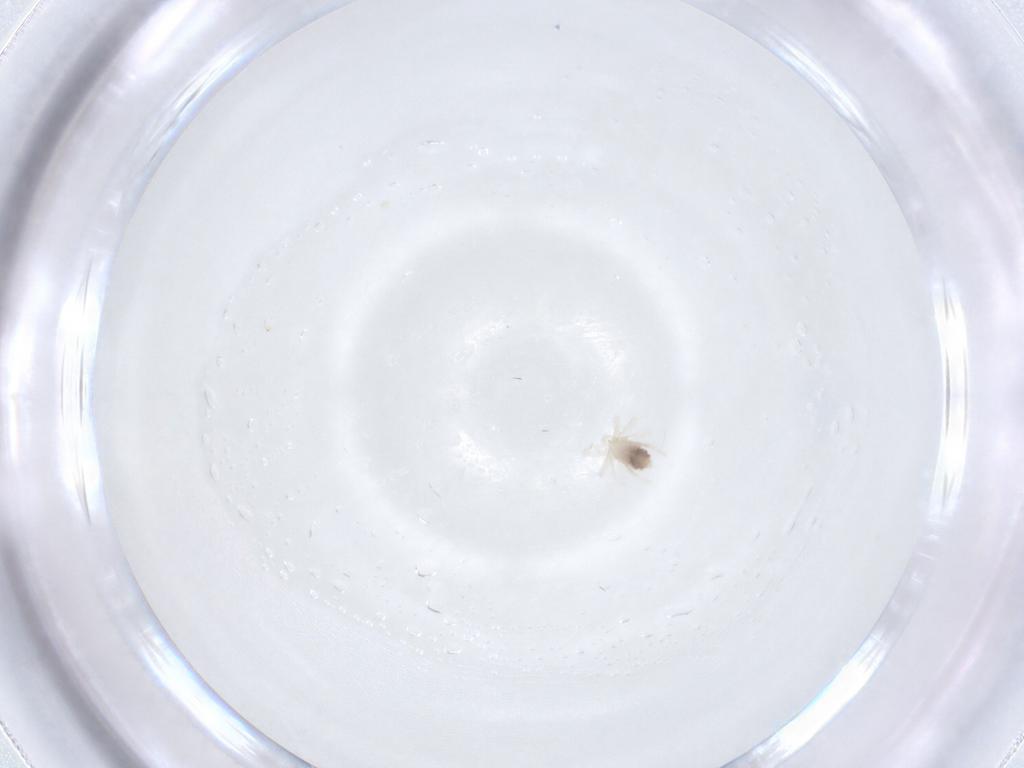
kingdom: Animalia
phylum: Arthropoda
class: Arachnida
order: Trombidiformes
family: Anystidae
